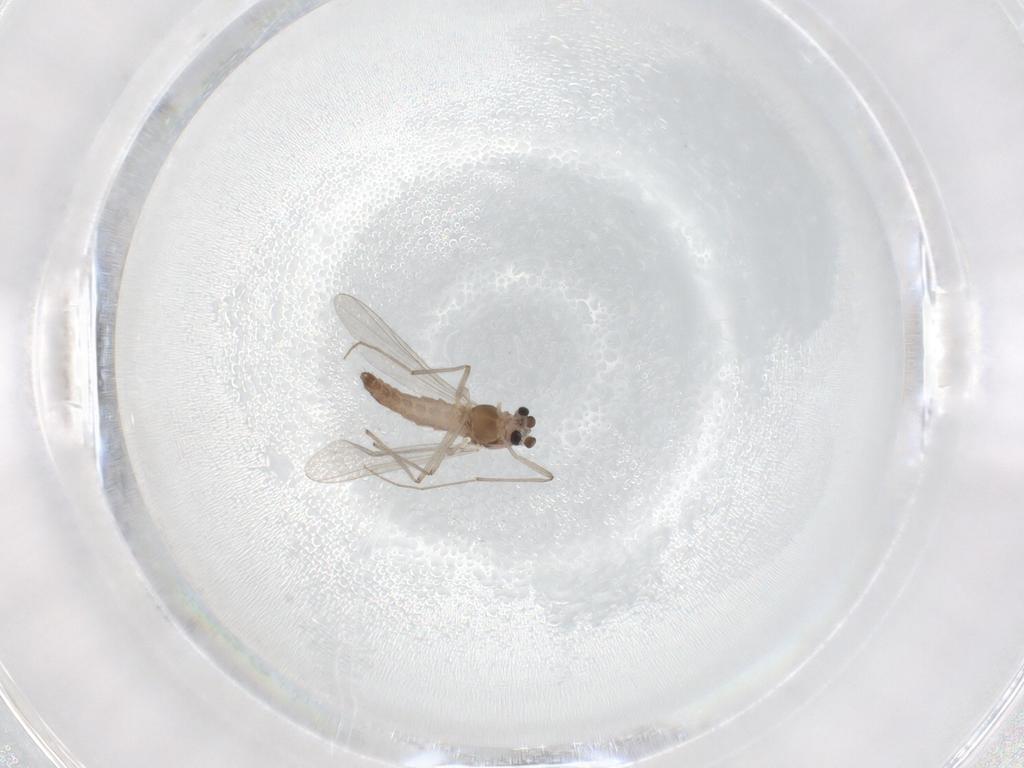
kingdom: Animalia
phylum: Arthropoda
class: Insecta
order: Diptera
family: Chironomidae
